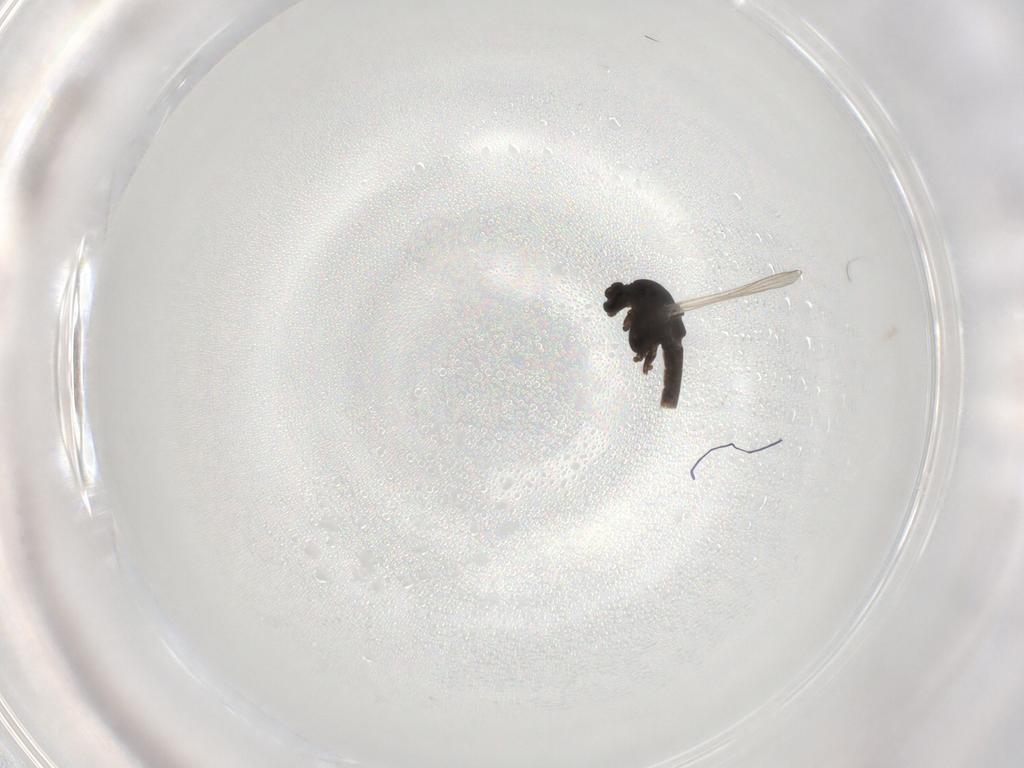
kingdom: Animalia
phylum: Arthropoda
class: Insecta
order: Diptera
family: Chironomidae
